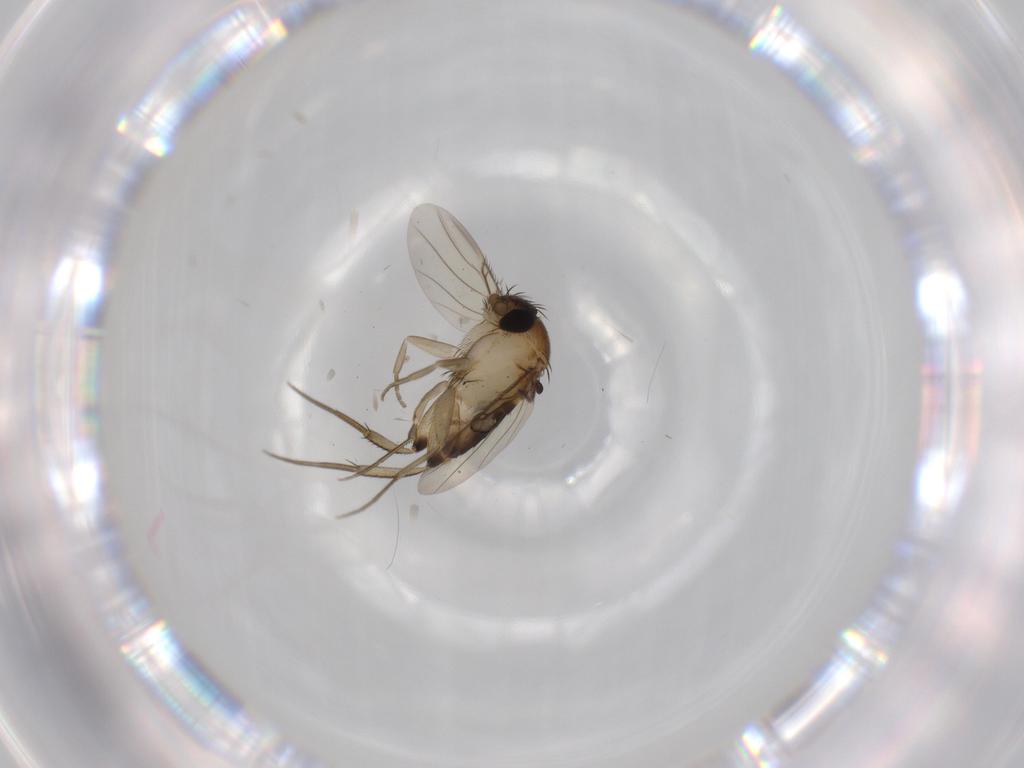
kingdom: Animalia
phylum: Arthropoda
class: Insecta
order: Diptera
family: Phoridae
